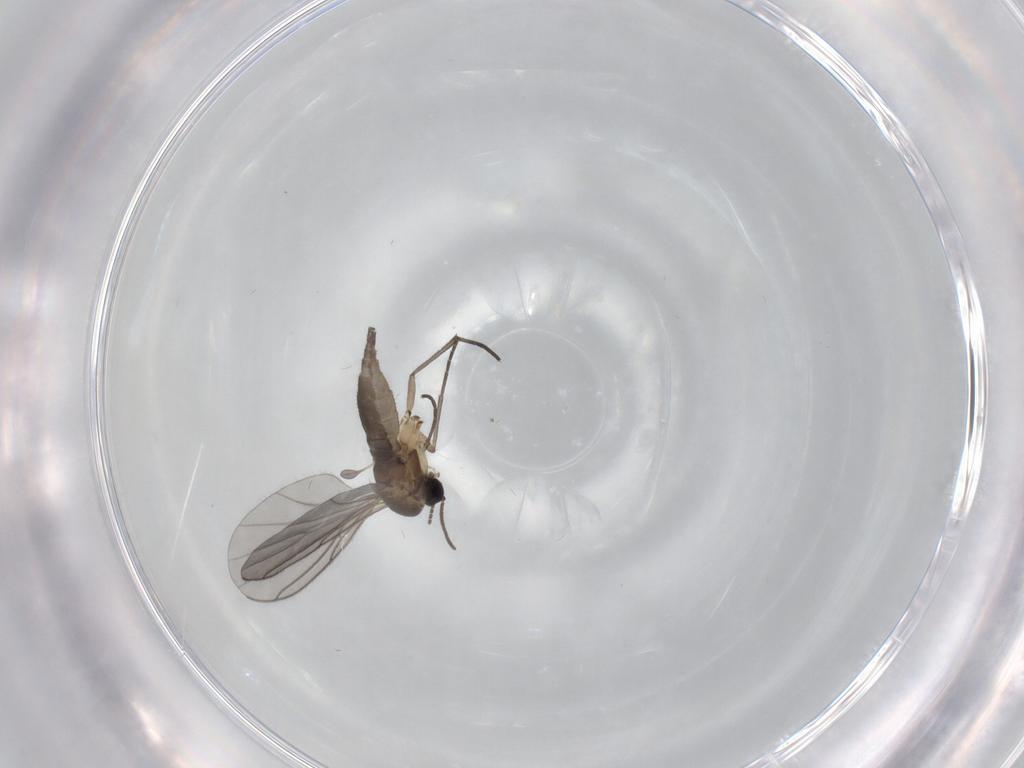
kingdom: Animalia
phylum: Arthropoda
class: Insecta
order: Diptera
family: Sciaridae
